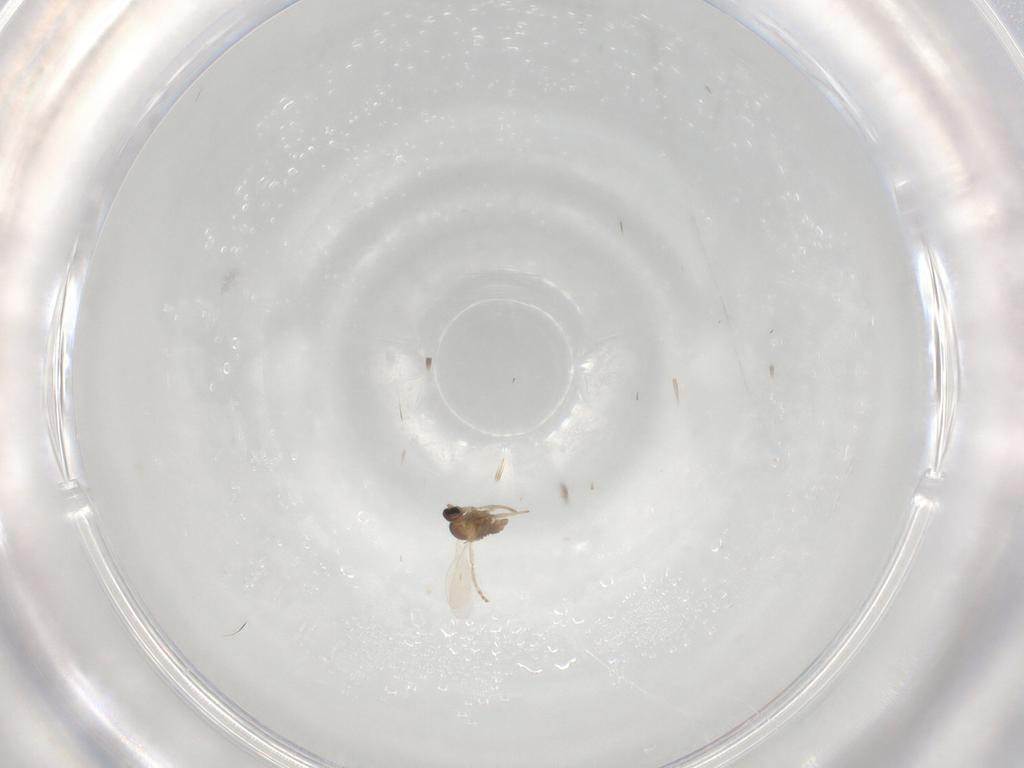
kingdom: Animalia
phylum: Arthropoda
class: Insecta
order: Diptera
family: Cecidomyiidae
